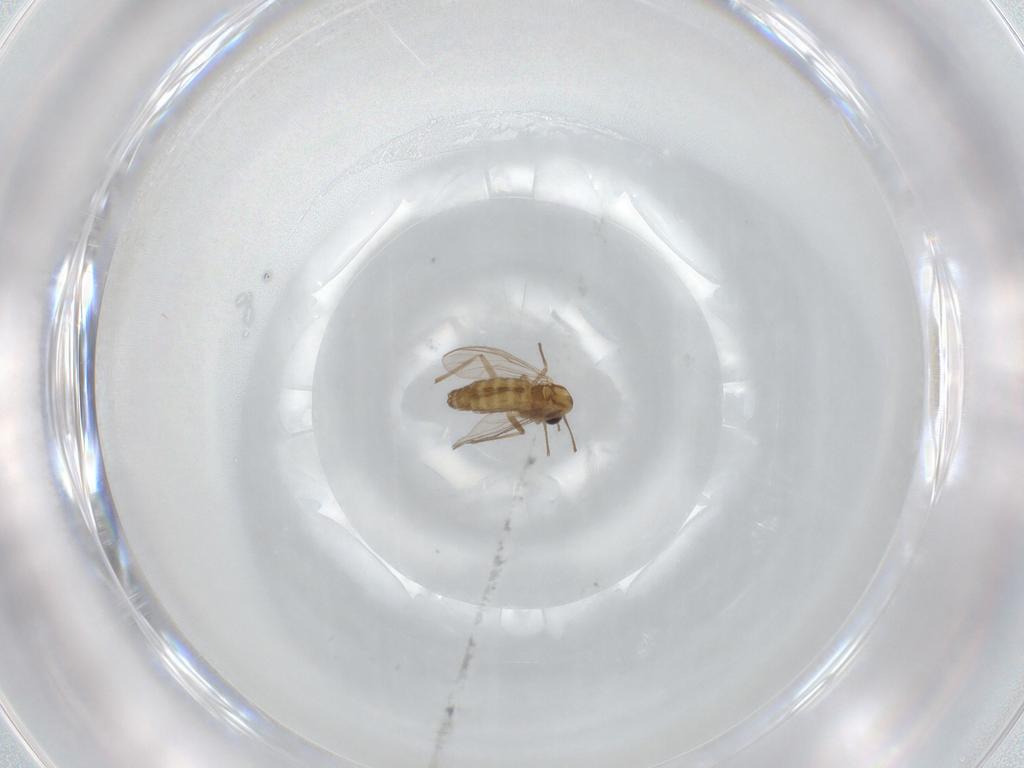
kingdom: Animalia
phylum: Arthropoda
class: Insecta
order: Diptera
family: Chironomidae
